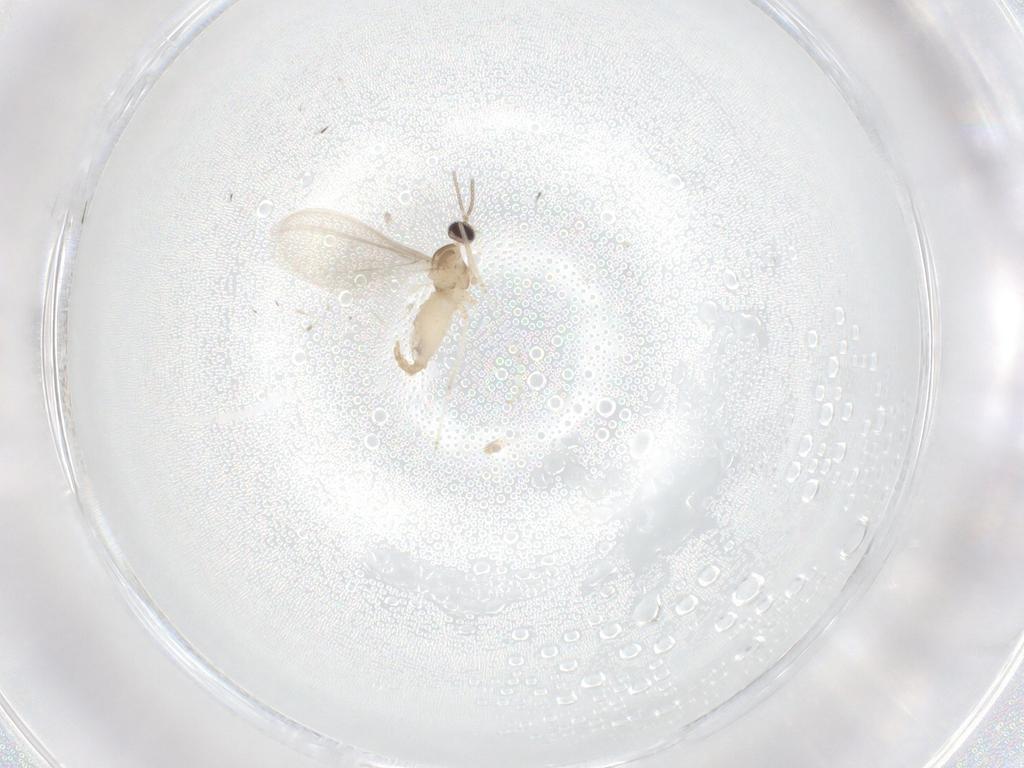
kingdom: Animalia
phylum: Arthropoda
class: Insecta
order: Diptera
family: Cecidomyiidae
